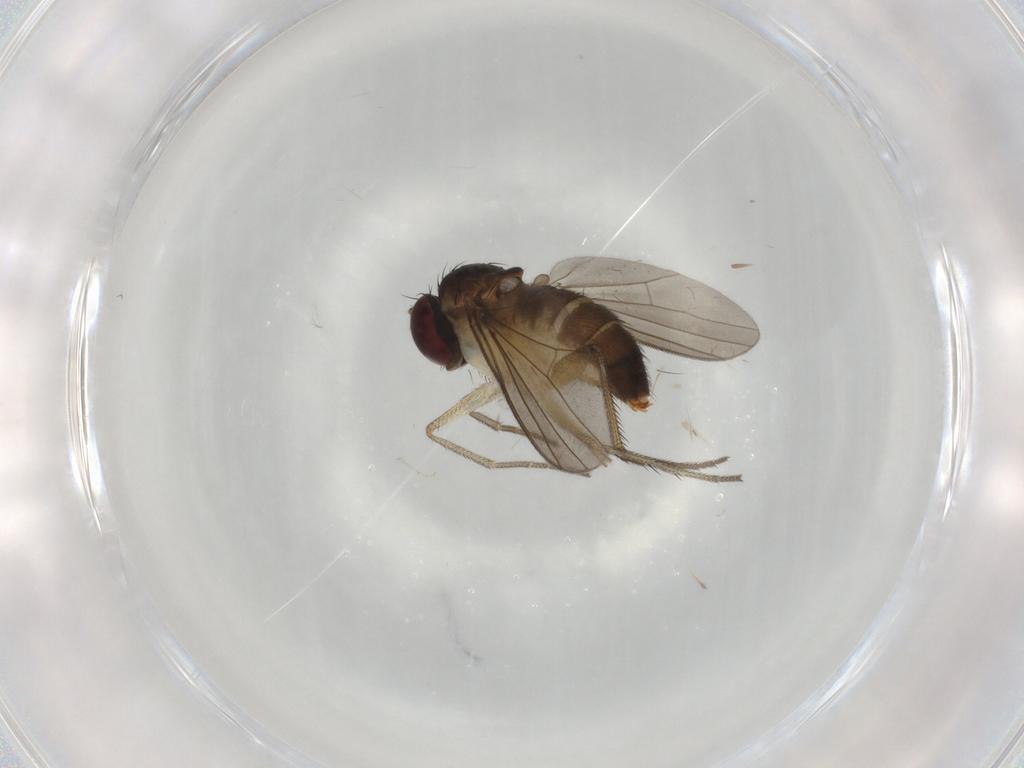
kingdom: Animalia
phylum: Arthropoda
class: Insecta
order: Diptera
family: Dolichopodidae
